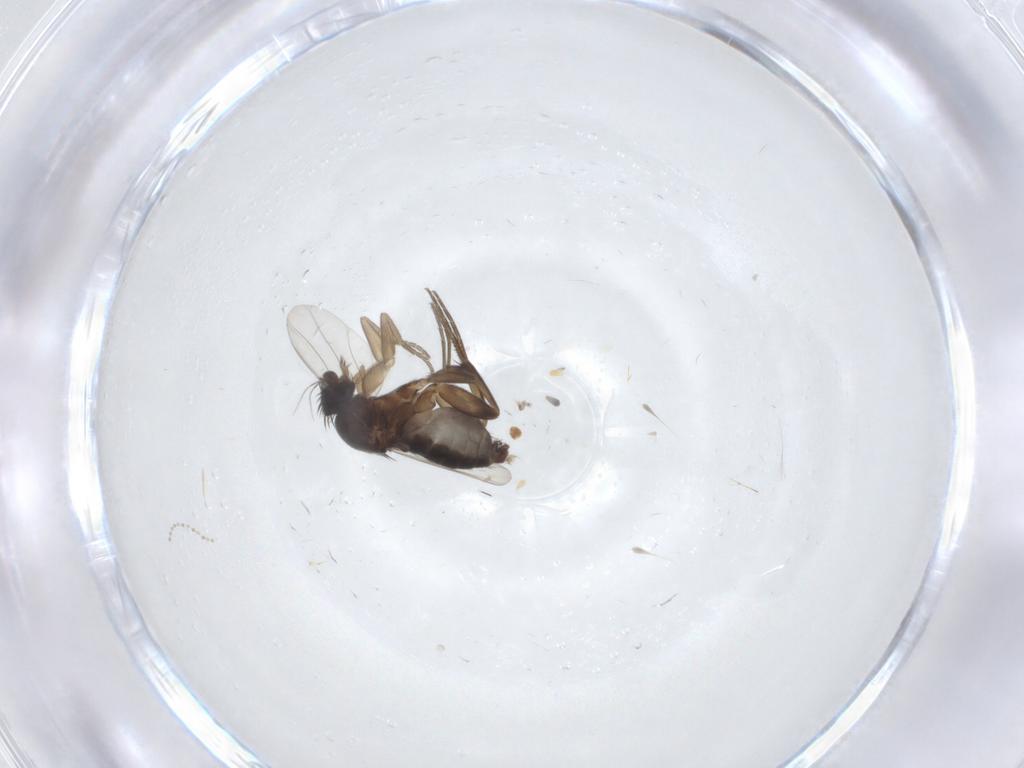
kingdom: Animalia
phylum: Arthropoda
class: Insecta
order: Diptera
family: Phoridae
